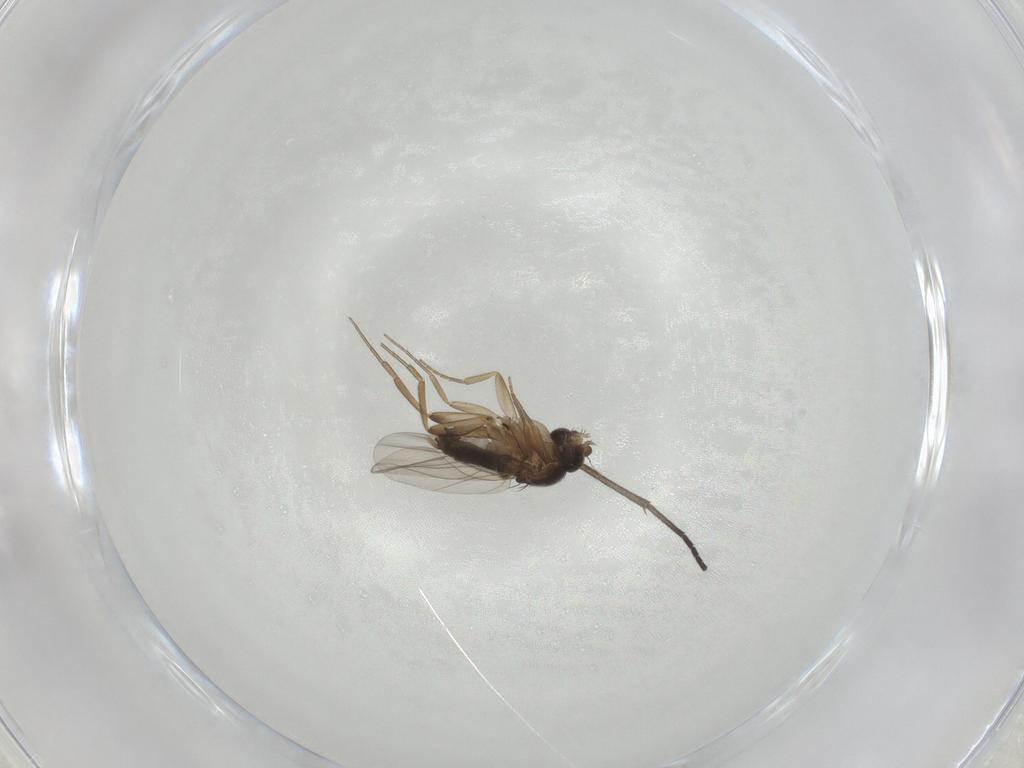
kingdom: Animalia
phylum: Arthropoda
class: Insecta
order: Diptera
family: Phoridae
